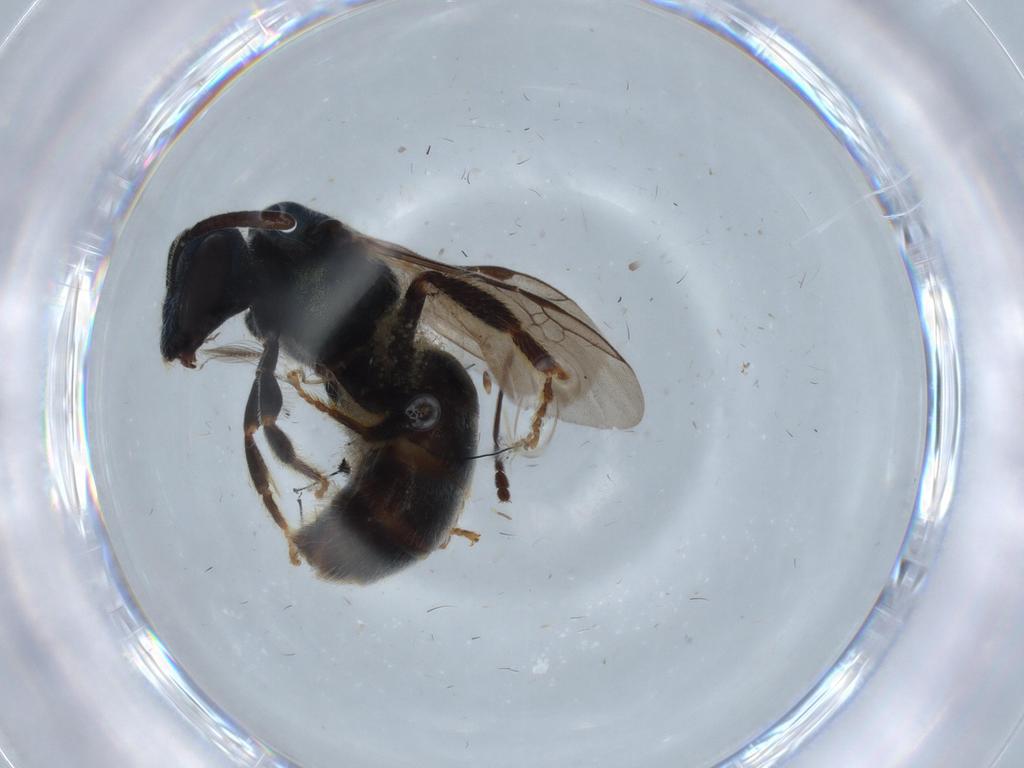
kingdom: Animalia
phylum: Arthropoda
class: Insecta
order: Hymenoptera
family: Halictidae
